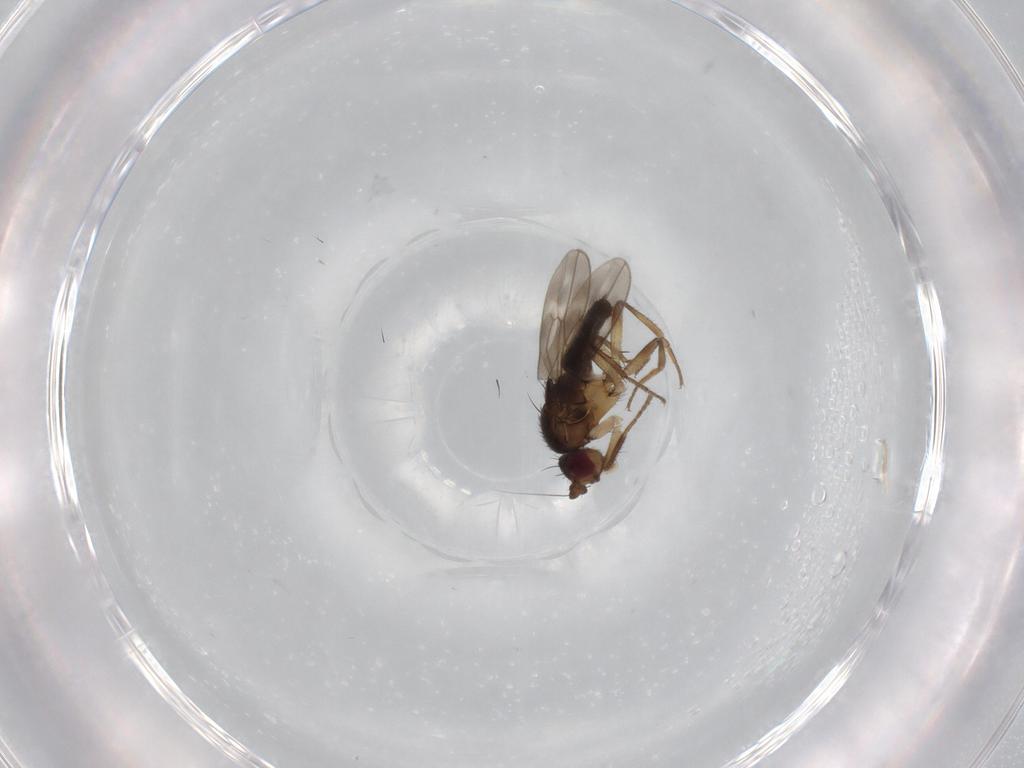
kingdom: Animalia
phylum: Arthropoda
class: Insecta
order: Diptera
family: Sphaeroceridae
